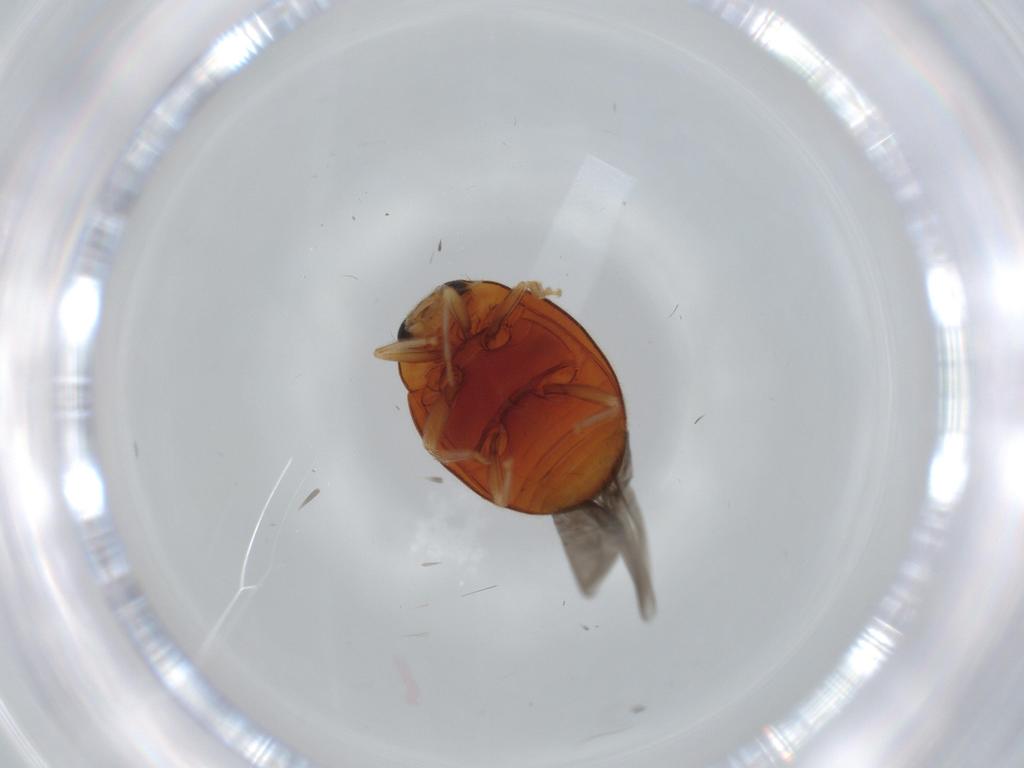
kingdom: Animalia
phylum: Arthropoda
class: Insecta
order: Coleoptera
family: Coccinellidae
